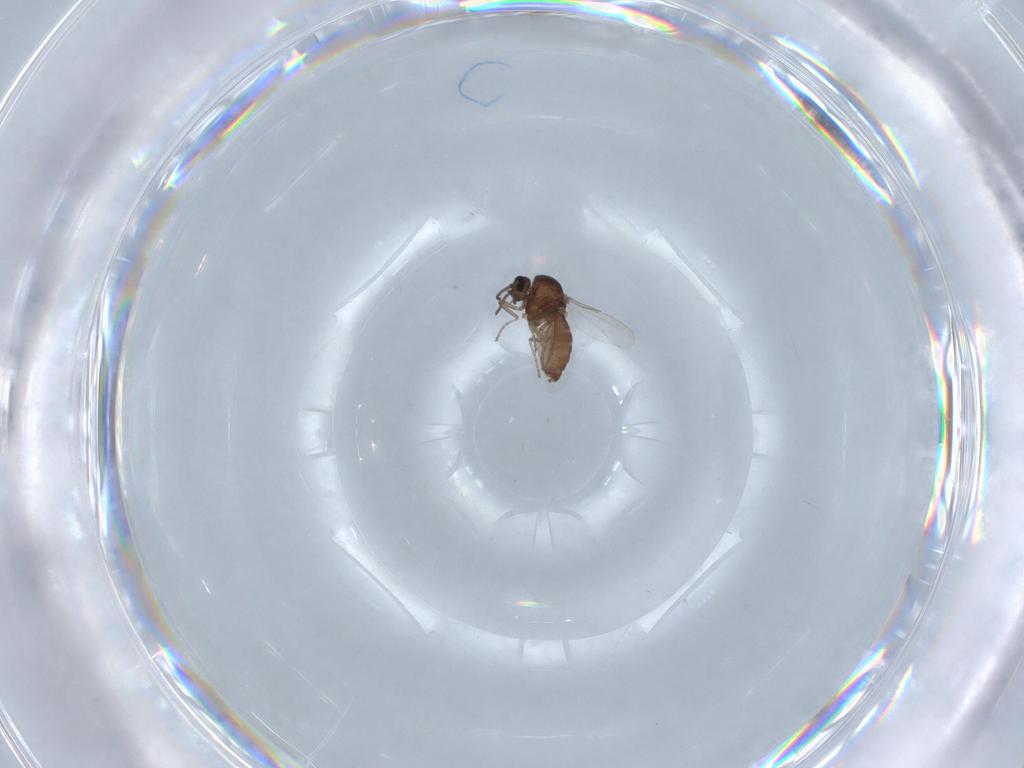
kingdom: Animalia
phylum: Arthropoda
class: Insecta
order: Diptera
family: Ceratopogonidae
